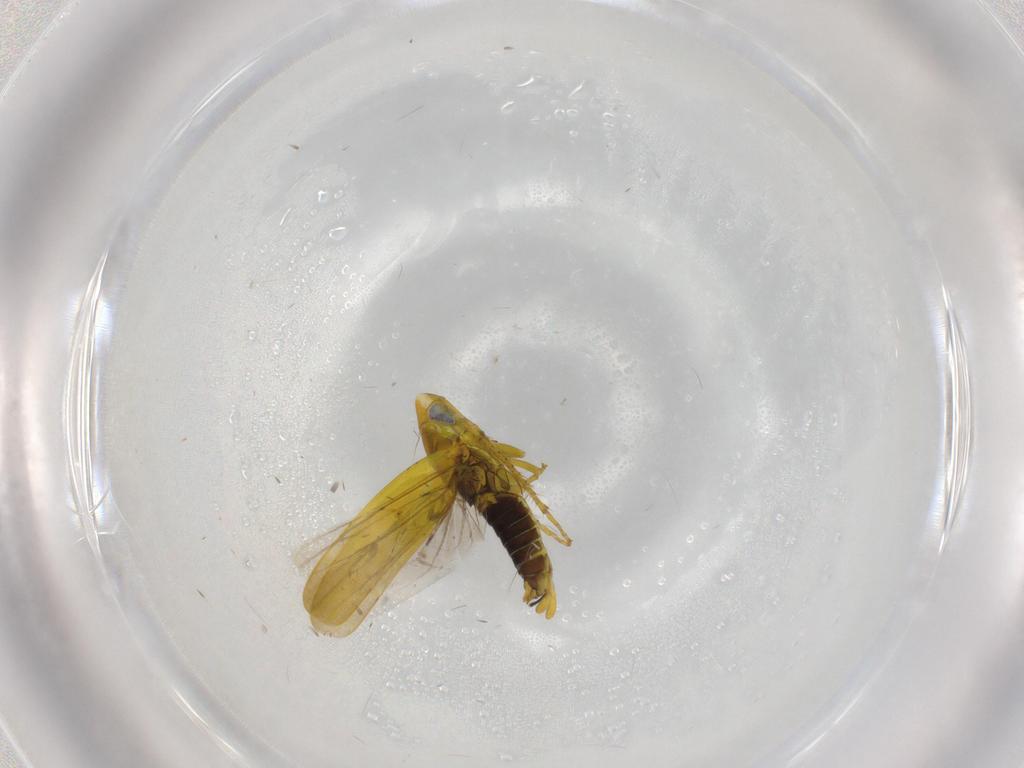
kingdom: Animalia
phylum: Arthropoda
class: Insecta
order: Hemiptera
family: Cicadellidae
